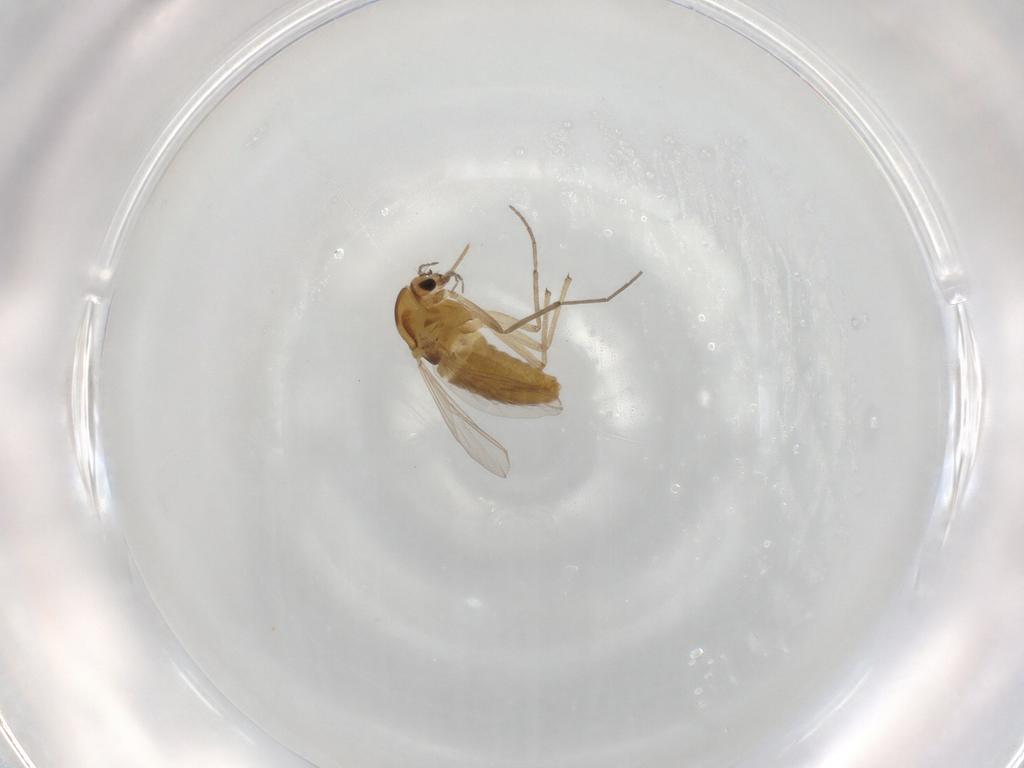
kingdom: Animalia
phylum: Arthropoda
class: Insecta
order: Diptera
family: Chironomidae
